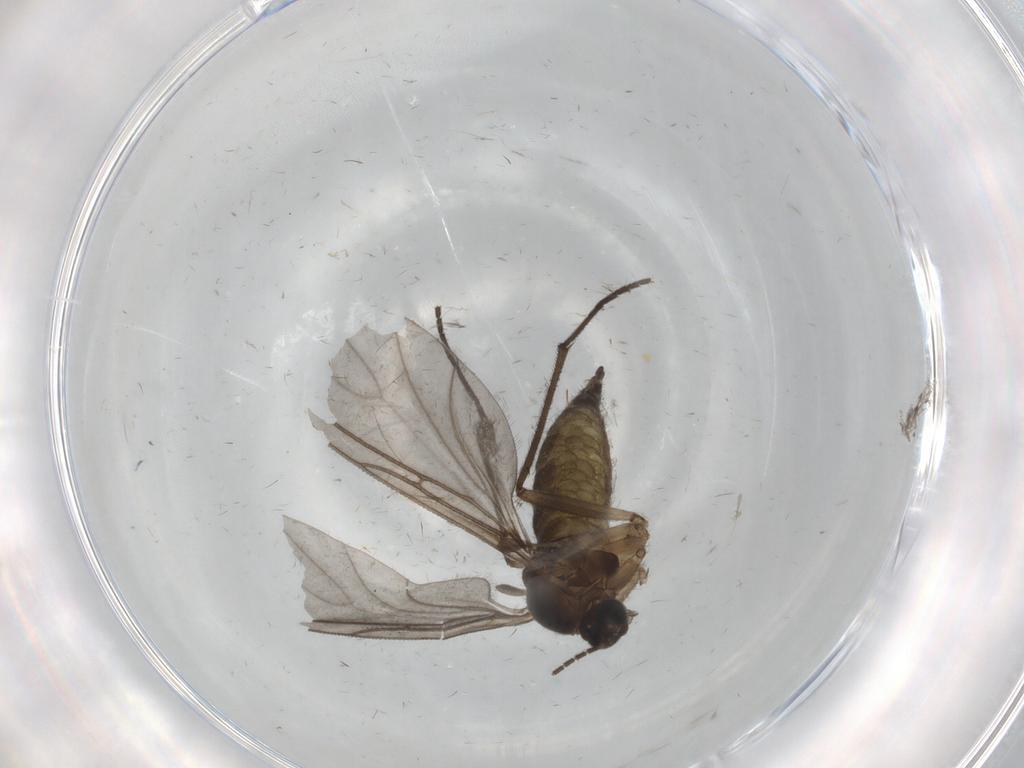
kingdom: Animalia
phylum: Arthropoda
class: Insecta
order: Diptera
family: Sciaridae
